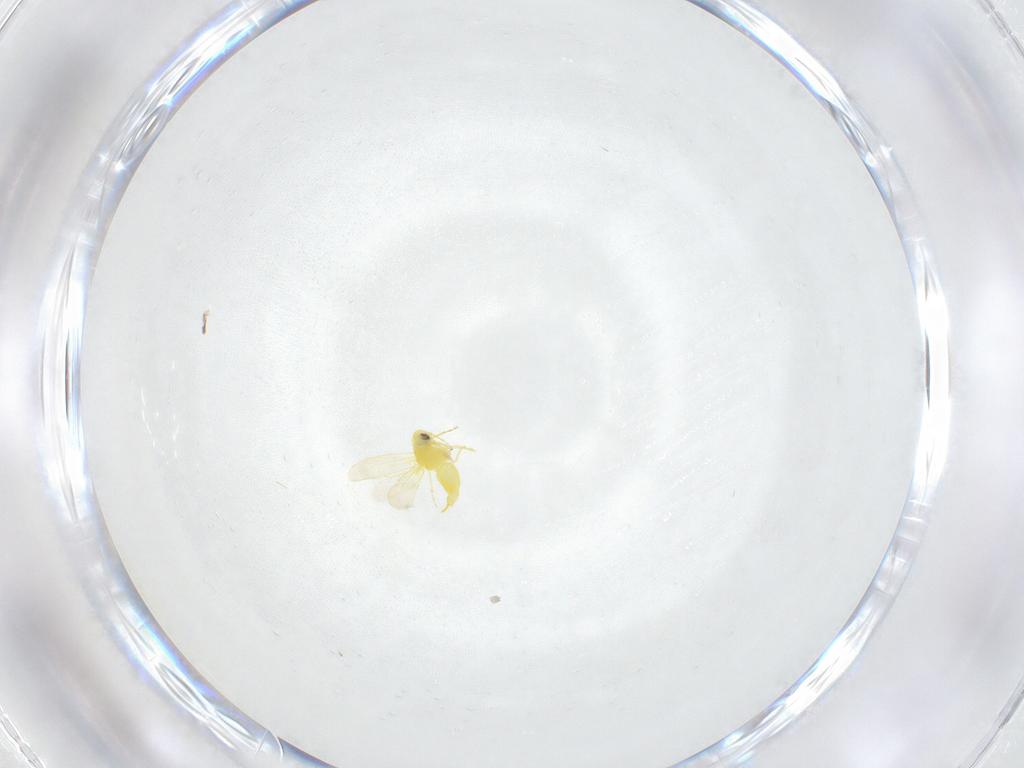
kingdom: Animalia
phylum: Arthropoda
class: Insecta
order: Hemiptera
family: Aleyrodidae
